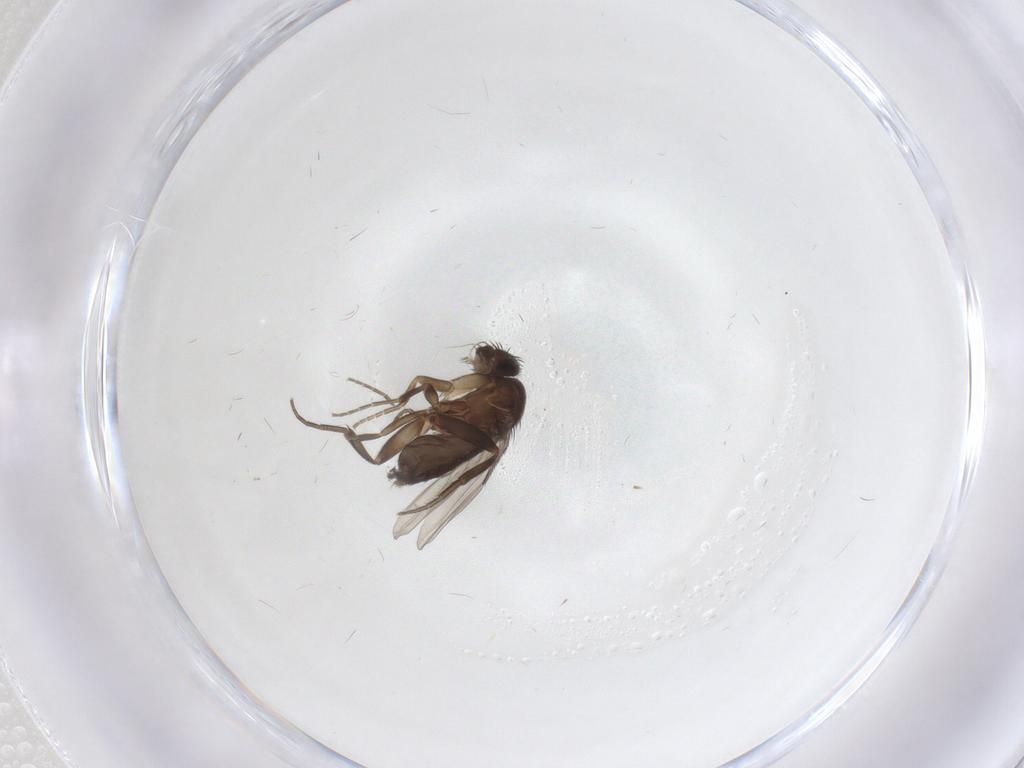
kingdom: Animalia
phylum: Arthropoda
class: Insecta
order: Diptera
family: Phoridae
